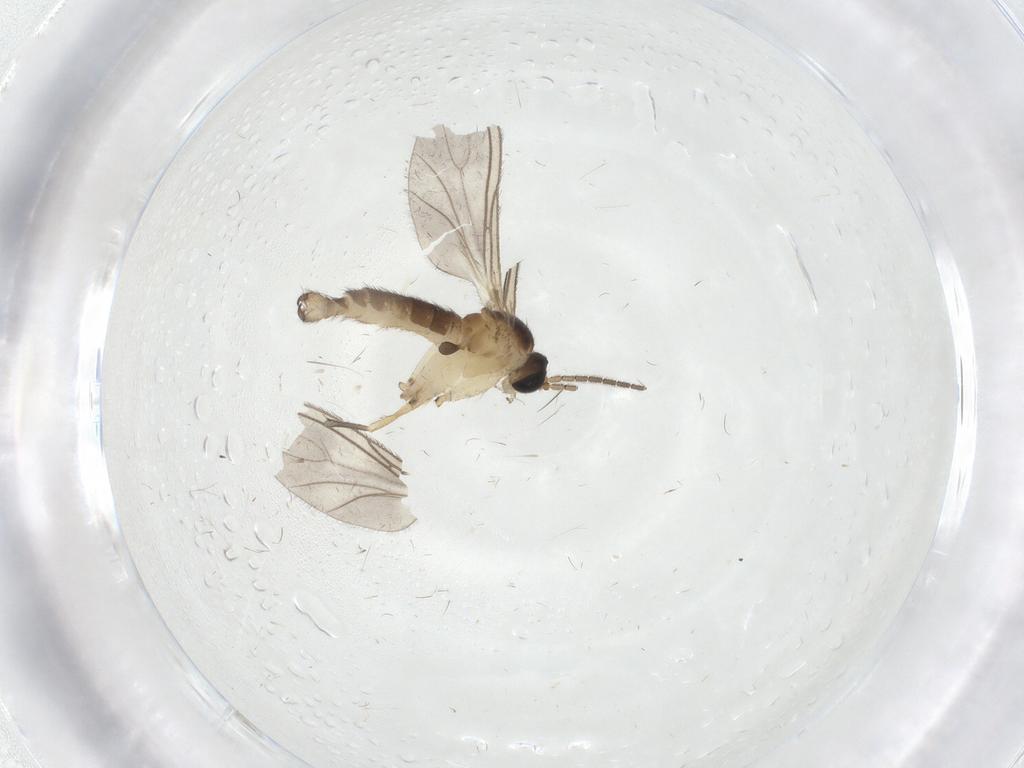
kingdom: Animalia
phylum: Arthropoda
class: Insecta
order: Diptera
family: Sciaridae
